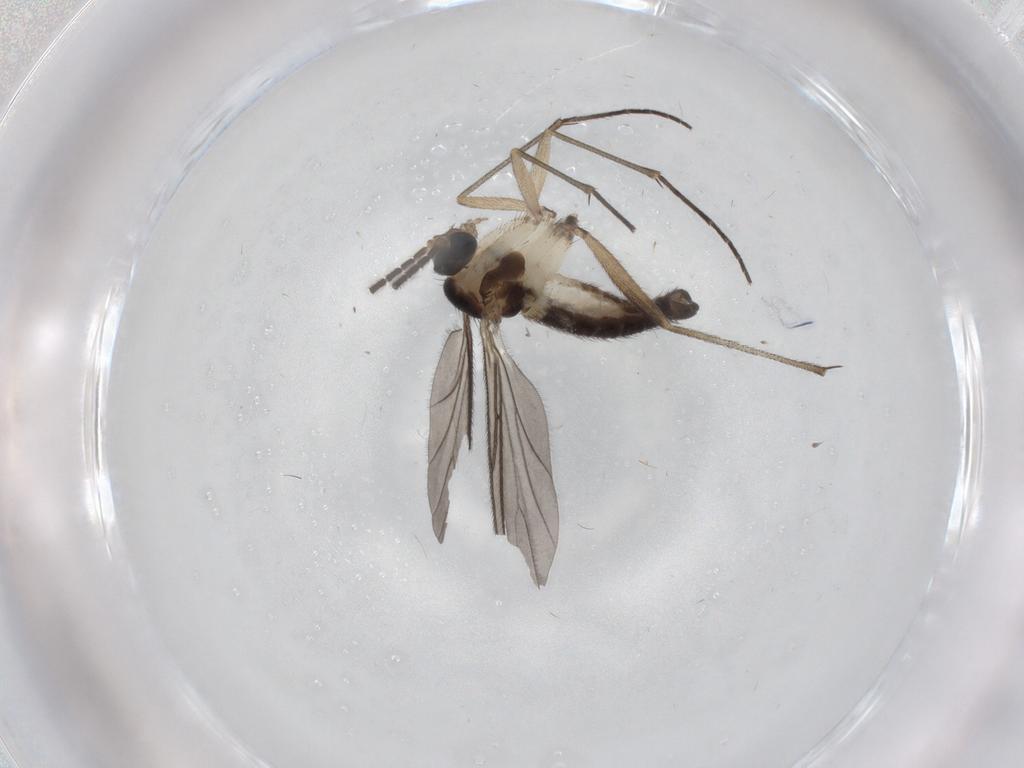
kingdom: Animalia
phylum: Arthropoda
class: Insecta
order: Diptera
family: Sciaridae
